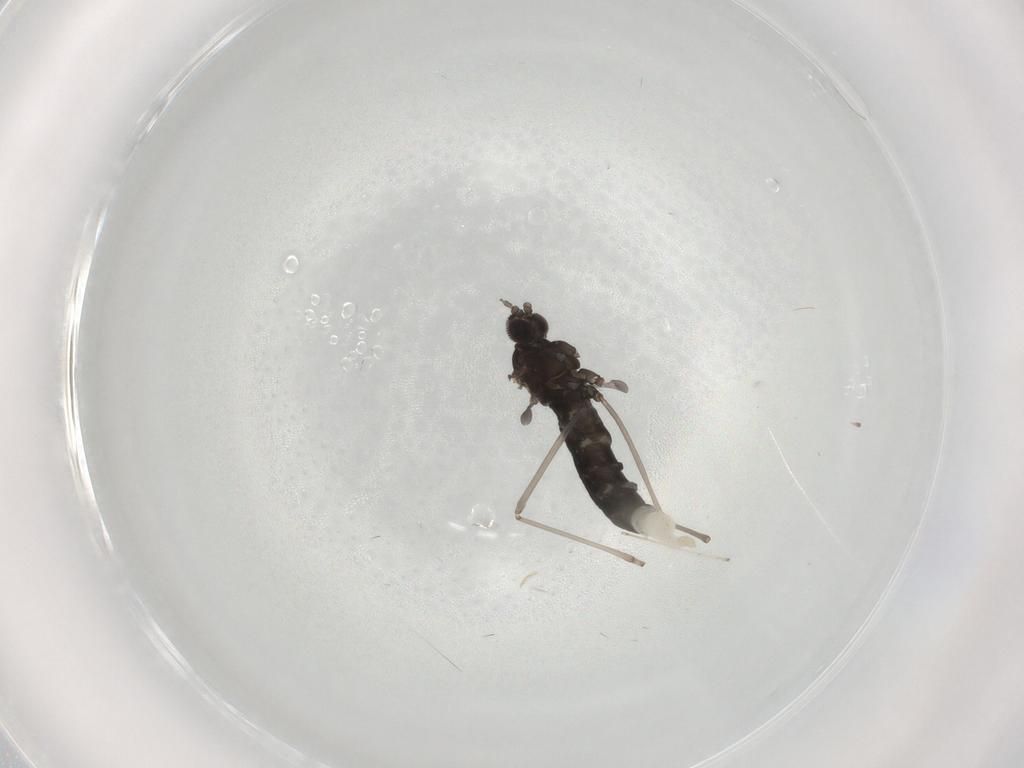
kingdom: Animalia
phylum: Arthropoda
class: Insecta
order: Diptera
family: Cecidomyiidae
